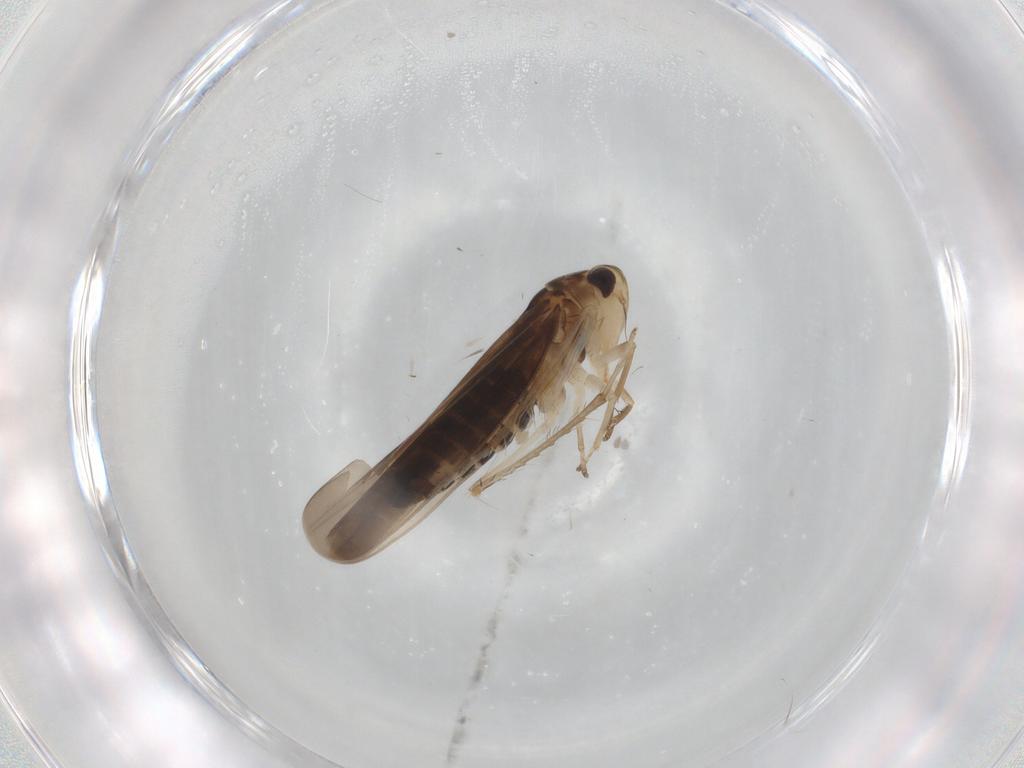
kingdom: Animalia
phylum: Arthropoda
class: Insecta
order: Hemiptera
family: Cicadellidae
